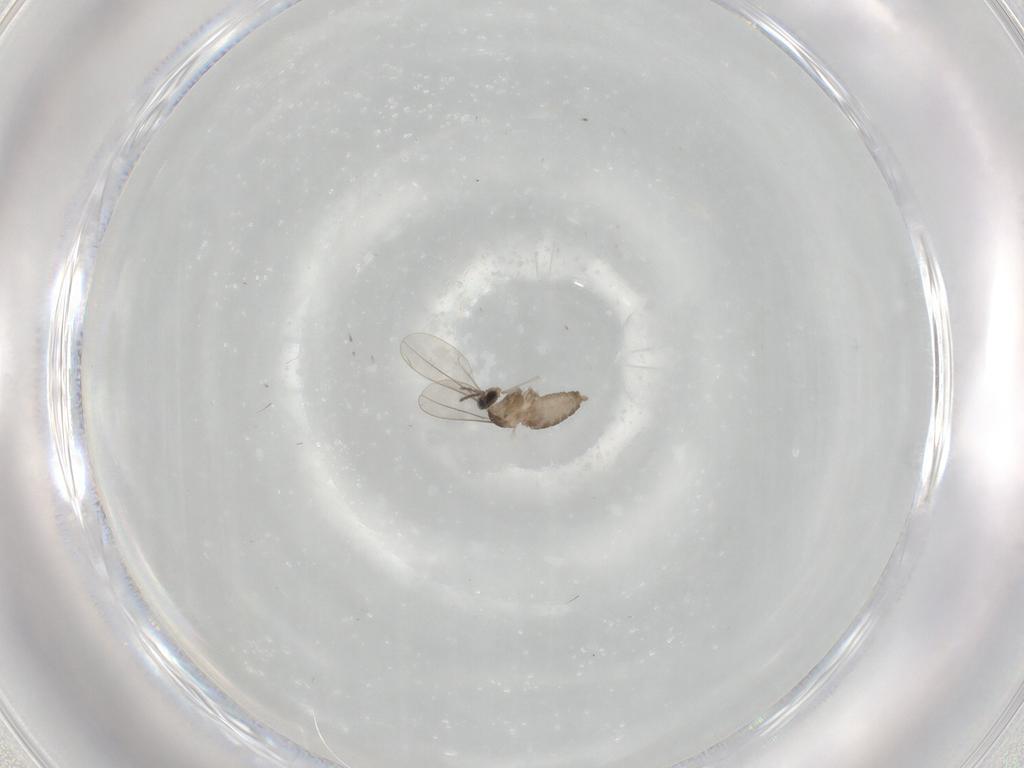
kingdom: Animalia
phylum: Arthropoda
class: Insecta
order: Diptera
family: Cecidomyiidae
